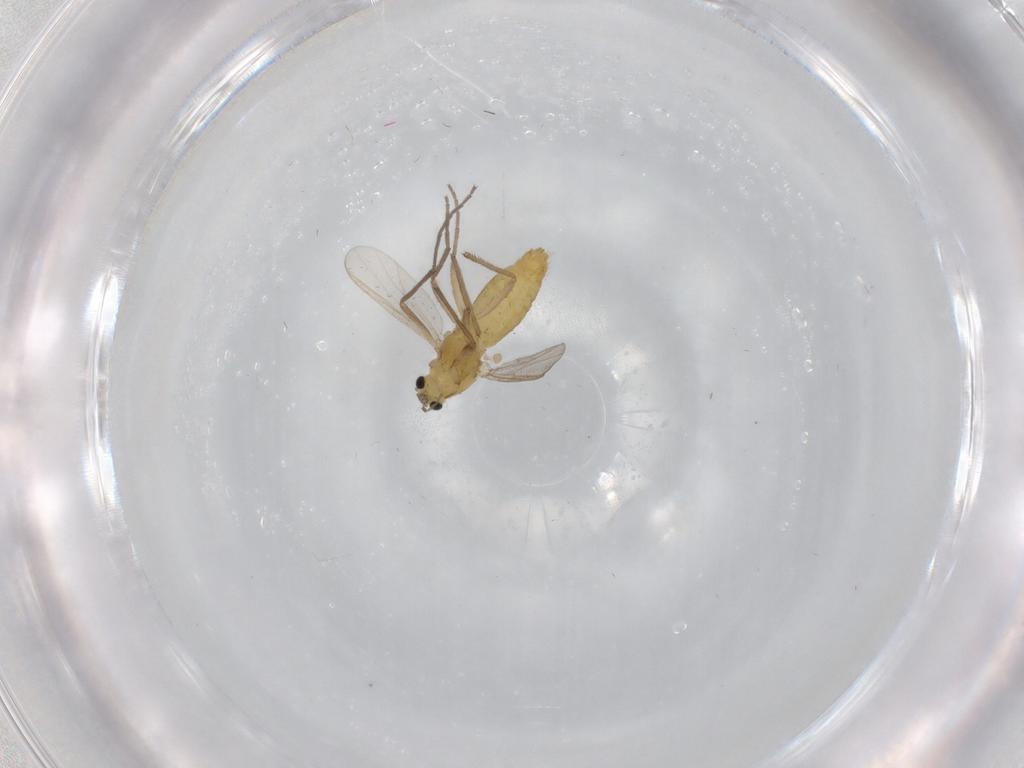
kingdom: Animalia
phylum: Arthropoda
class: Insecta
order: Diptera
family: Chironomidae
